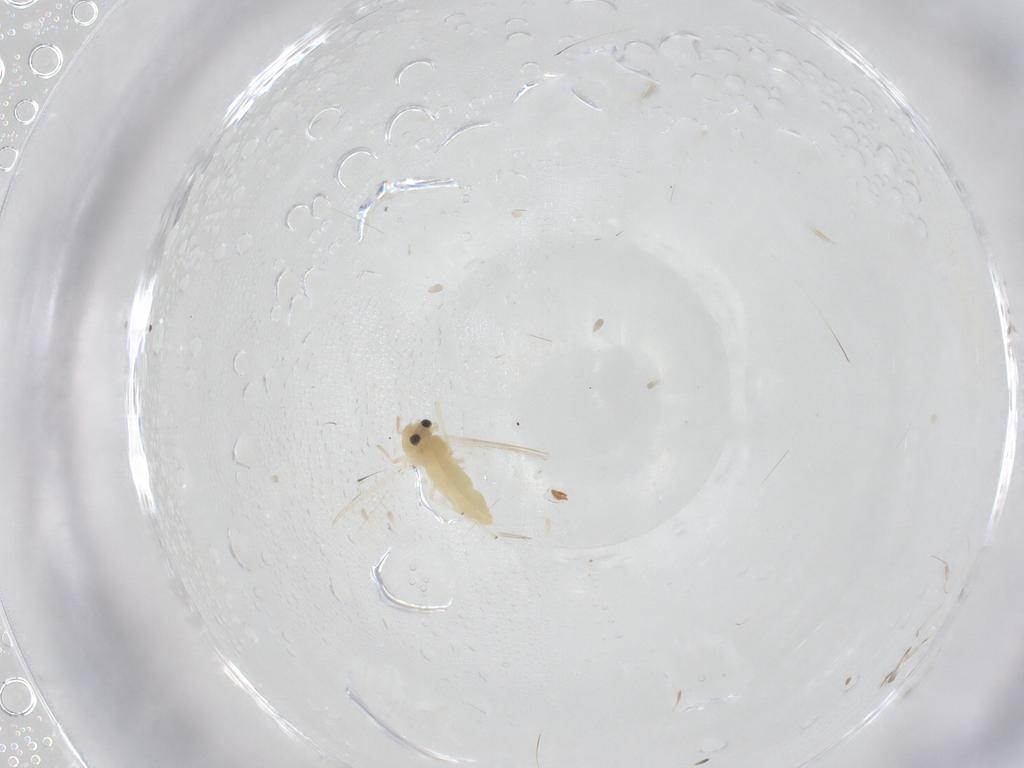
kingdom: Animalia
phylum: Arthropoda
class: Insecta
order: Diptera
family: Chironomidae
